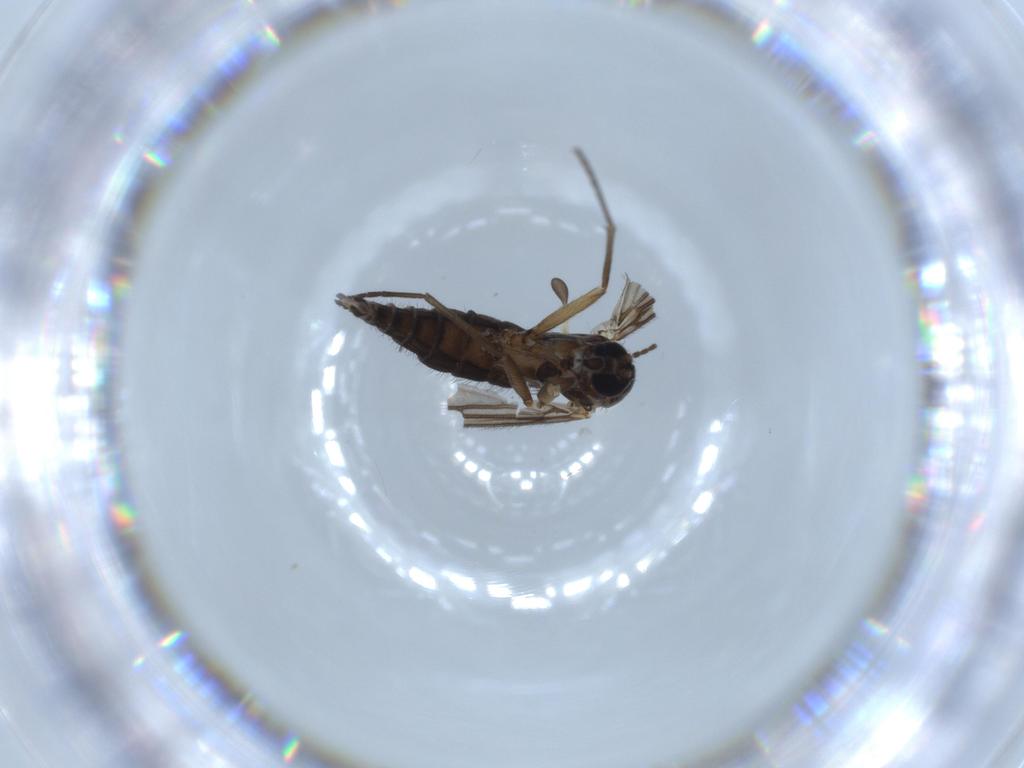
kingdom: Animalia
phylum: Arthropoda
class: Insecta
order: Diptera
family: Sciaridae
